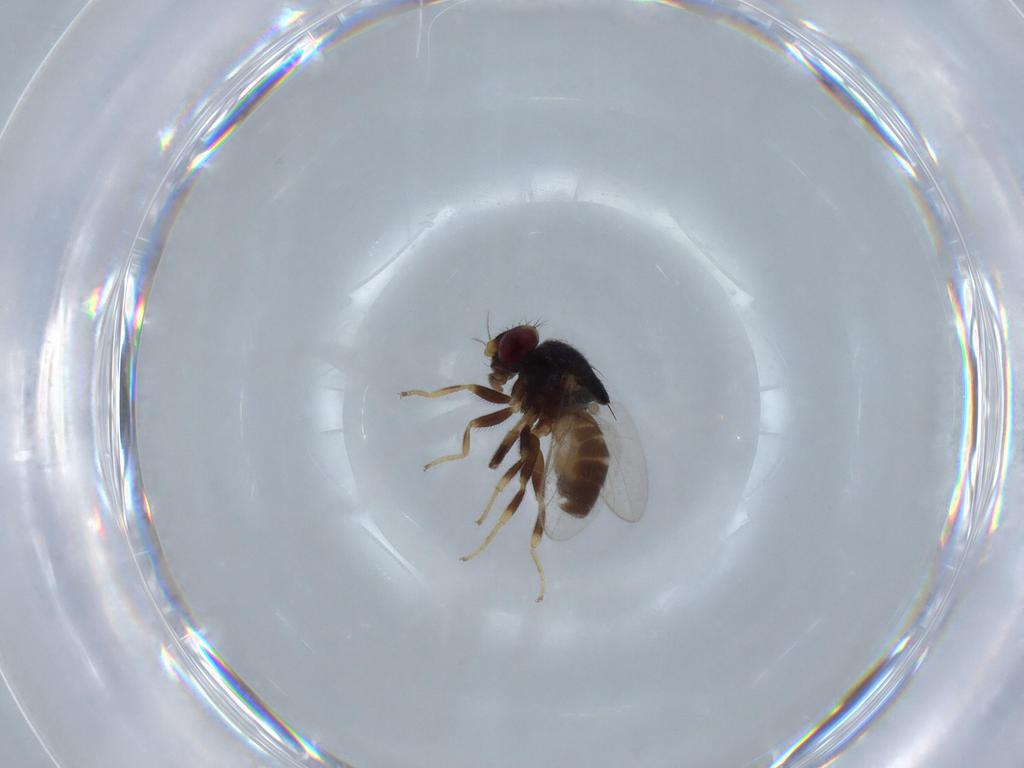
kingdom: Animalia
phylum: Arthropoda
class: Insecta
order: Diptera
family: Chloropidae
